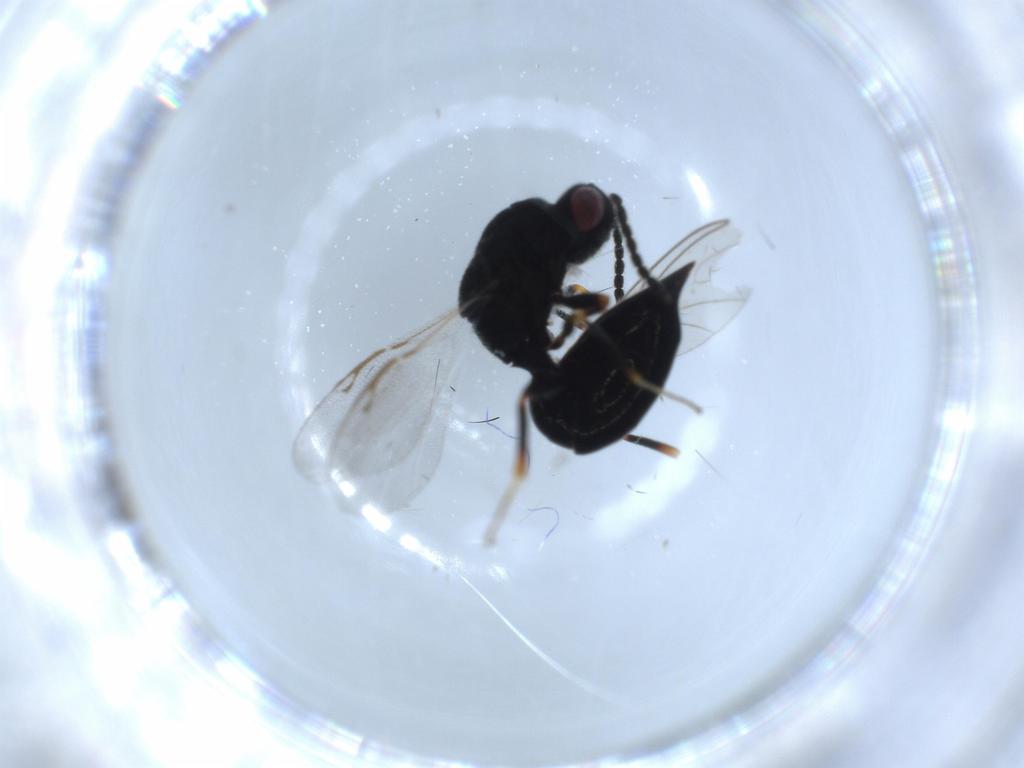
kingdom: Animalia
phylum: Arthropoda
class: Insecta
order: Hymenoptera
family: Eurytomidae
